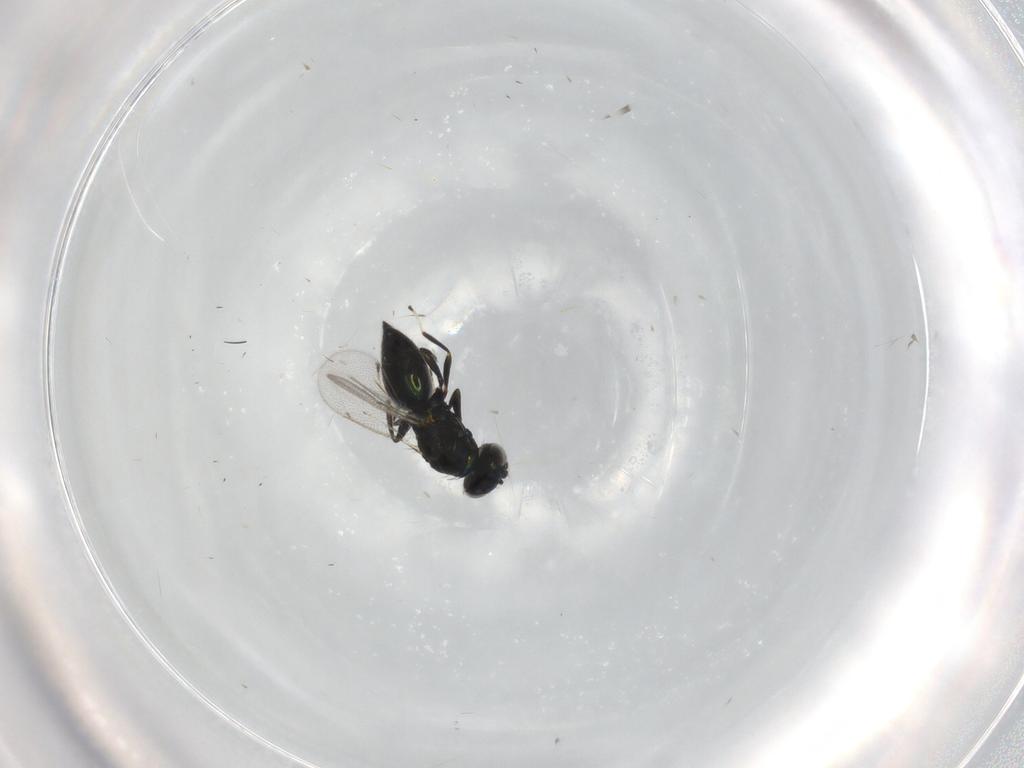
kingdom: Animalia
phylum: Arthropoda
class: Insecta
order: Hymenoptera
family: Eulophidae
